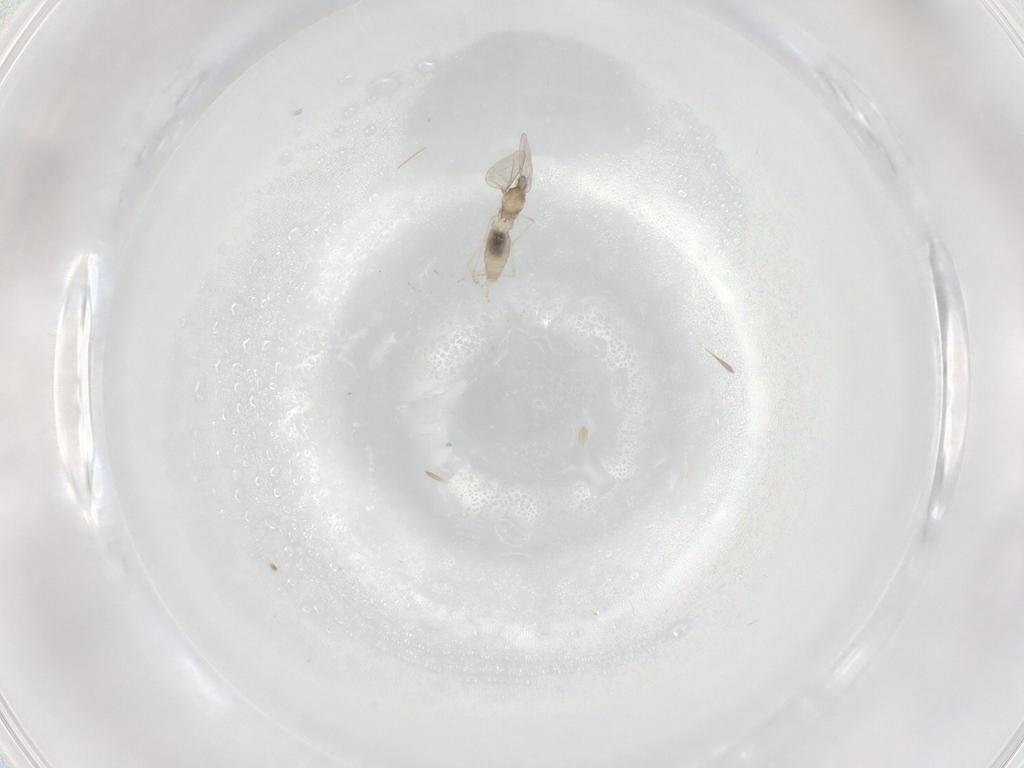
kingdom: Animalia
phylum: Arthropoda
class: Insecta
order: Diptera
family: Cecidomyiidae
